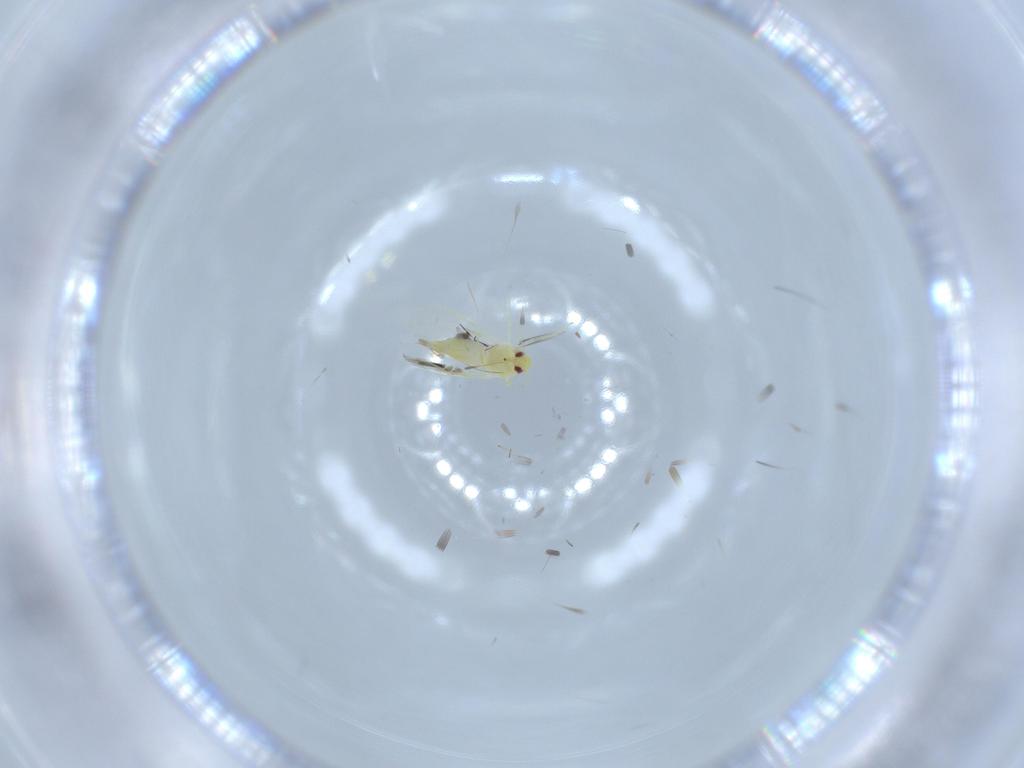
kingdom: Animalia
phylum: Arthropoda
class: Insecta
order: Hemiptera
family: Aleyrodidae
